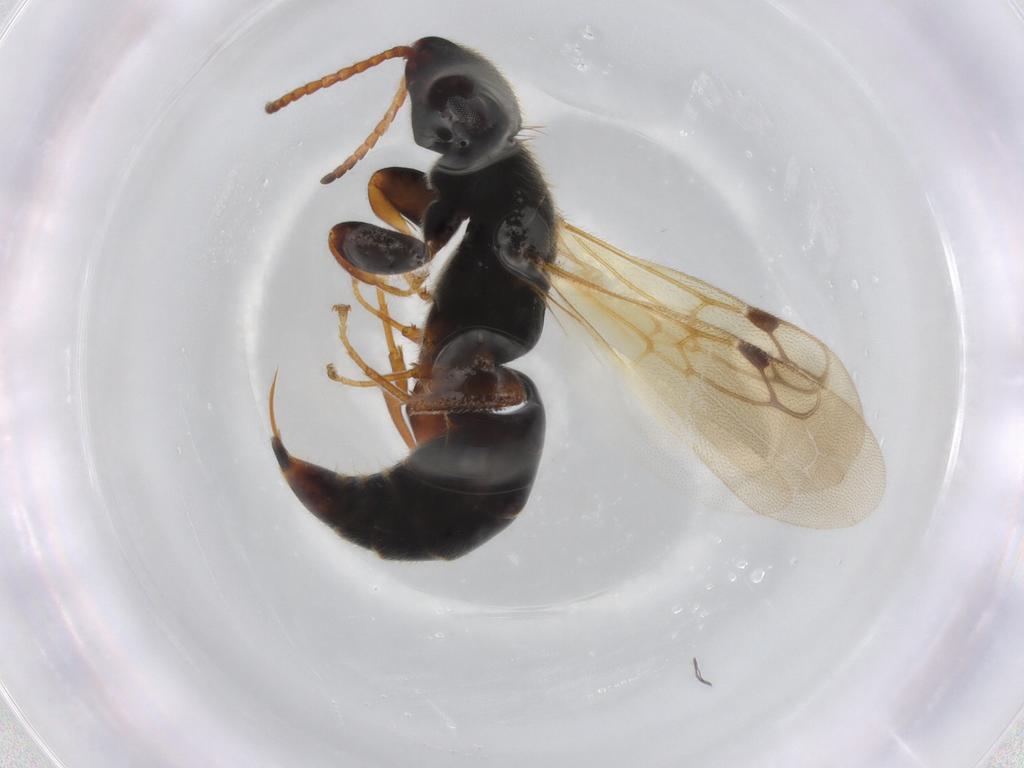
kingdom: Animalia
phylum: Arthropoda
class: Insecta
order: Hymenoptera
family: Bethylidae
